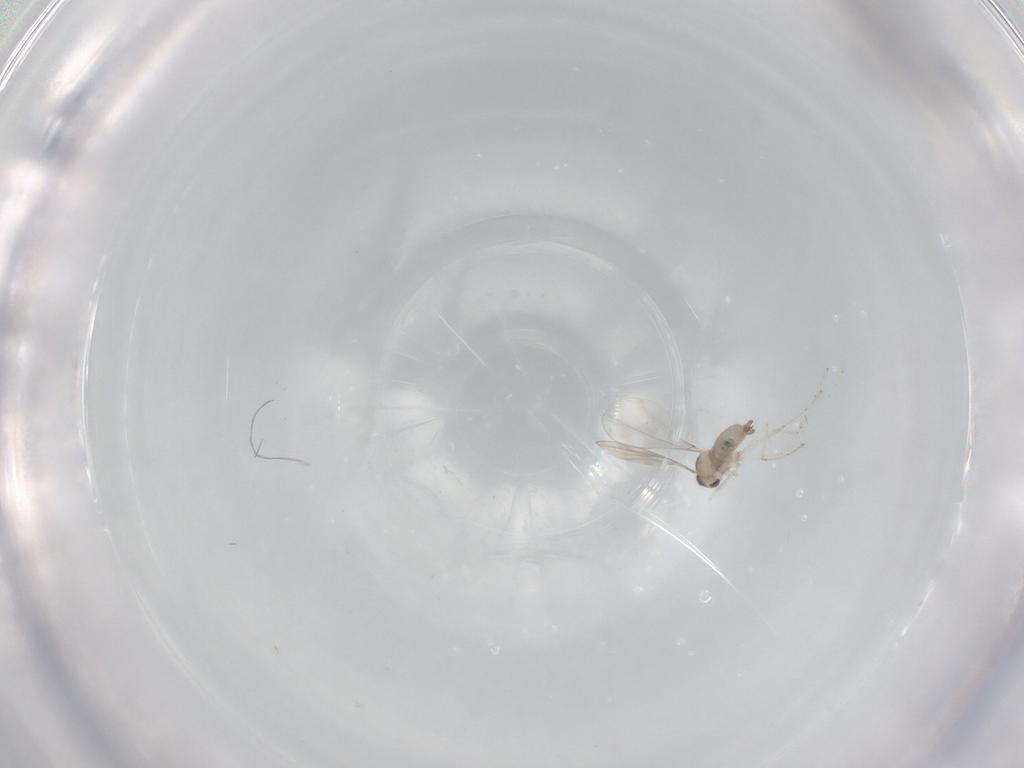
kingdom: Animalia
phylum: Arthropoda
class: Insecta
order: Diptera
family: Cecidomyiidae
